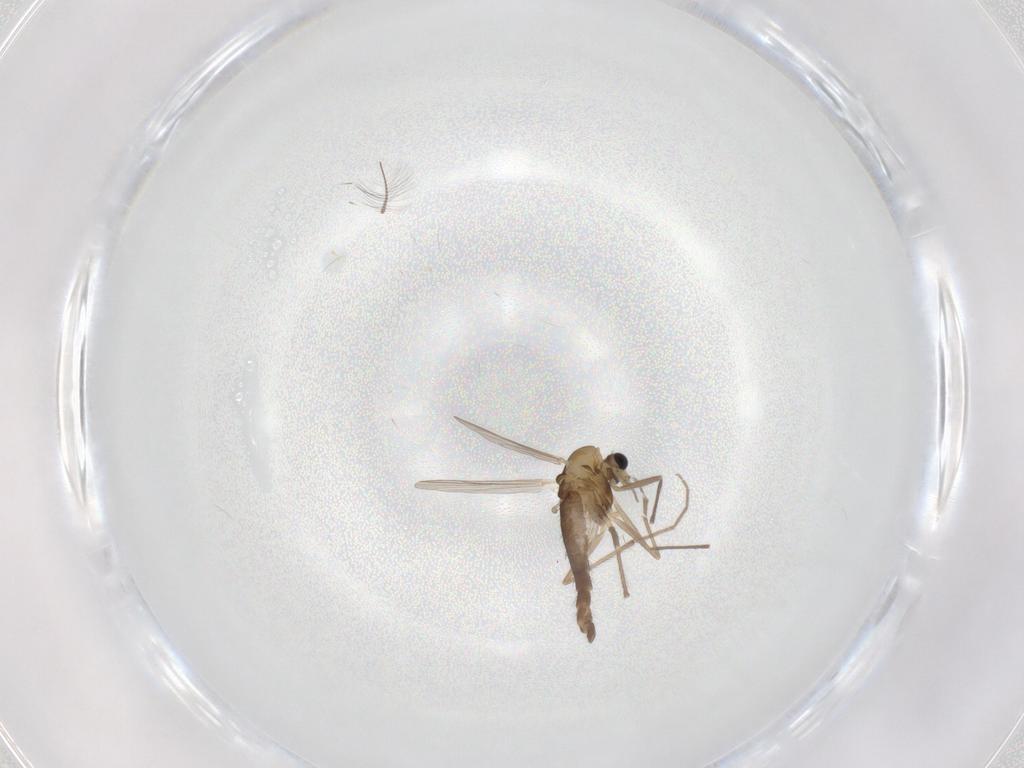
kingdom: Animalia
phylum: Arthropoda
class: Insecta
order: Diptera
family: Chironomidae
